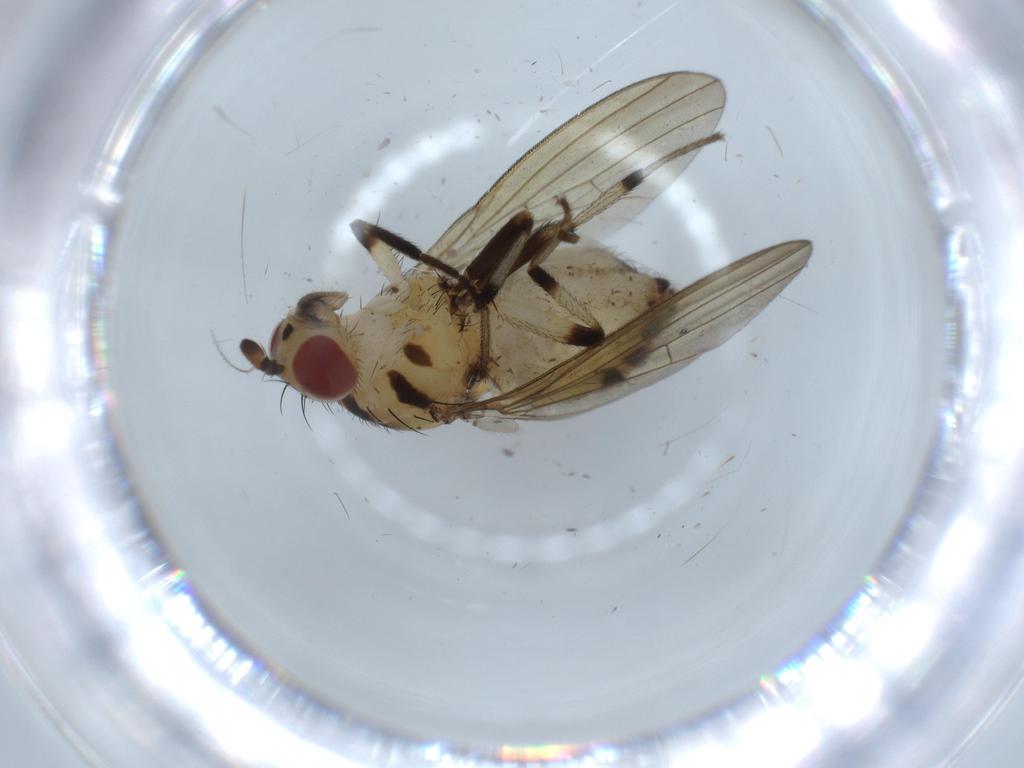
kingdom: Animalia
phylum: Arthropoda
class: Insecta
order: Diptera
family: Lauxaniidae
